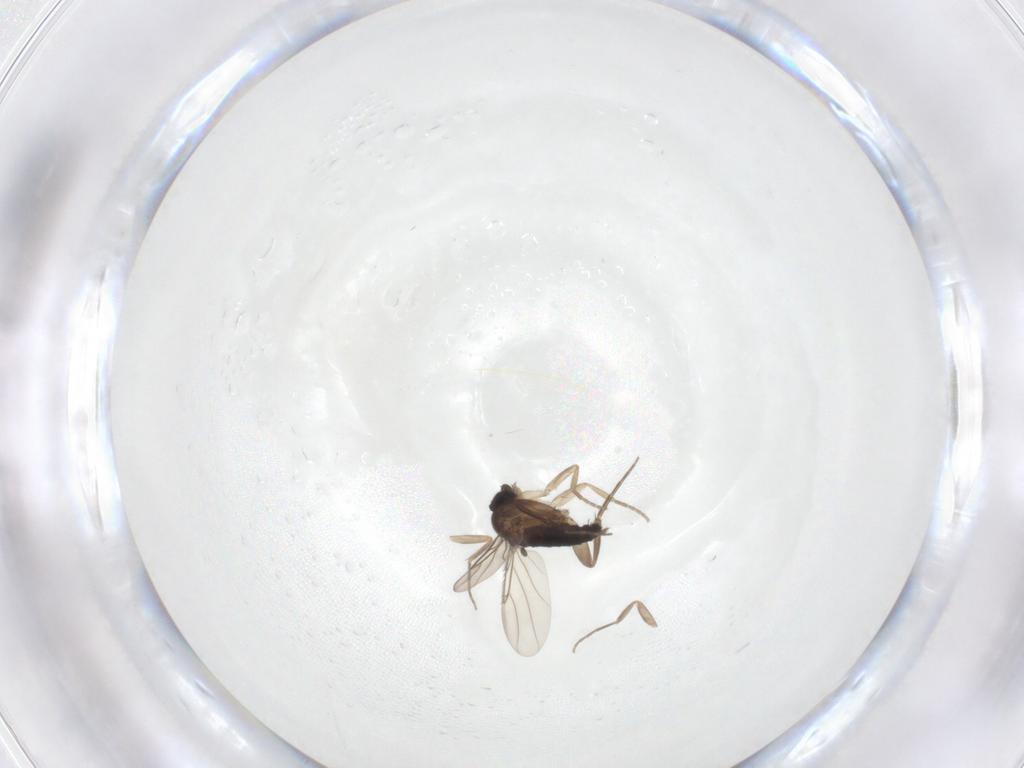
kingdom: Animalia
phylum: Arthropoda
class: Insecta
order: Diptera
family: Phoridae
